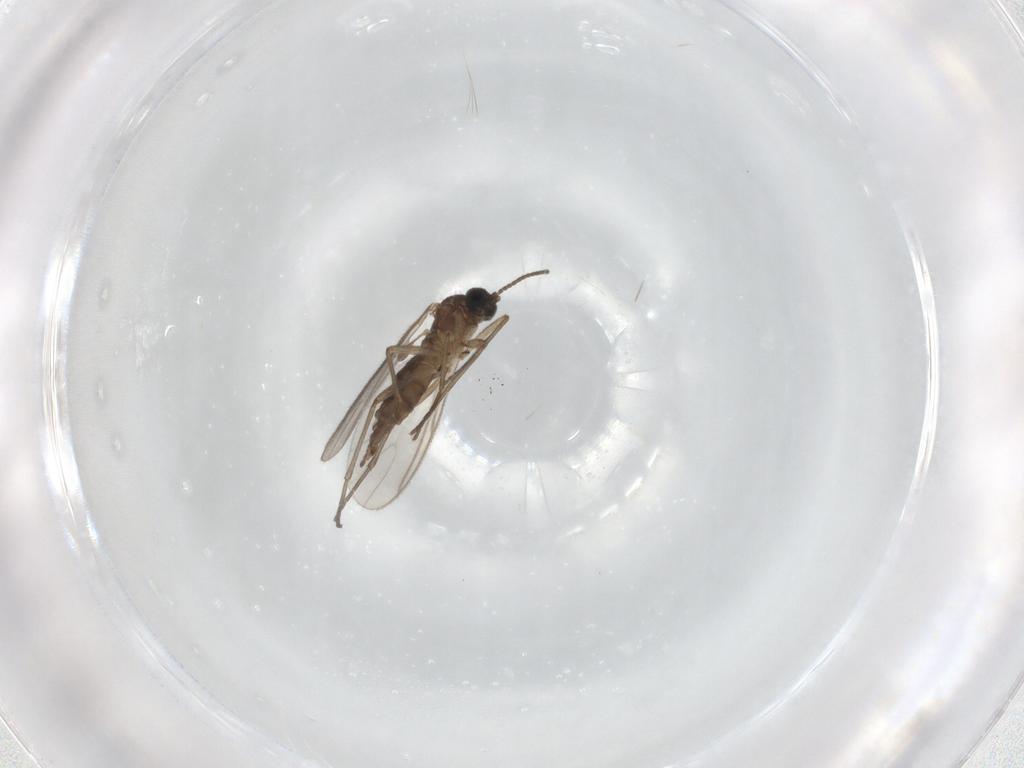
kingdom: Animalia
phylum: Arthropoda
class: Insecta
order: Diptera
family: Sciaridae
